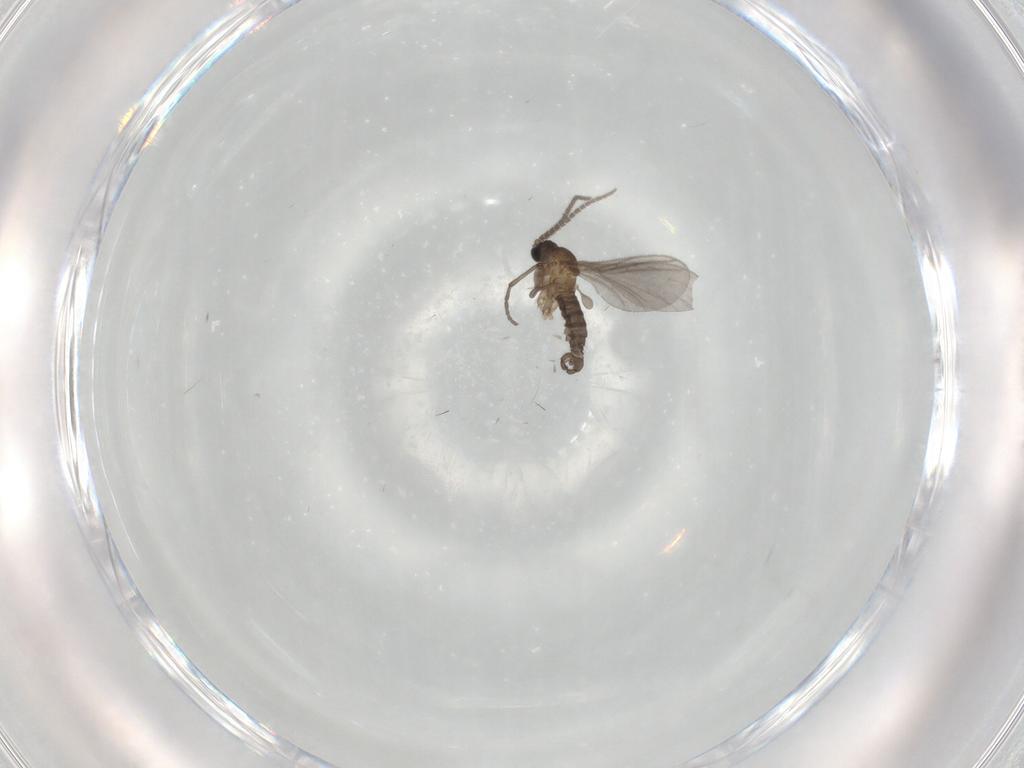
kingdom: Animalia
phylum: Arthropoda
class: Insecta
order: Diptera
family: Sciaridae
